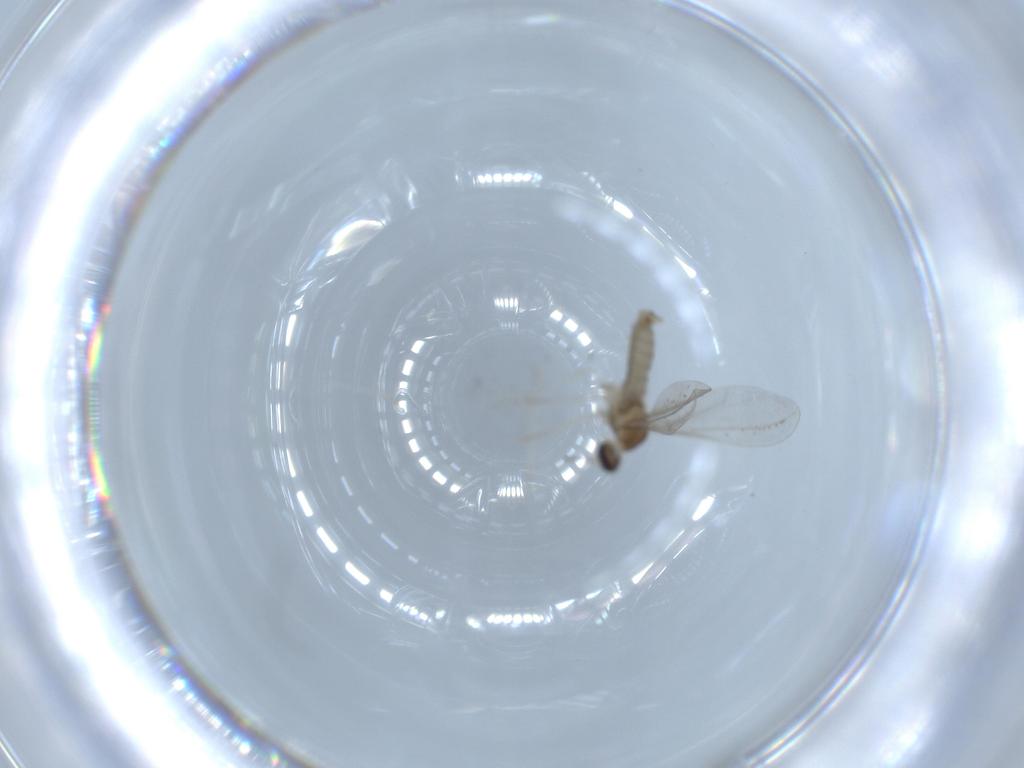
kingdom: Animalia
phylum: Arthropoda
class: Insecta
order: Diptera
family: Cecidomyiidae
